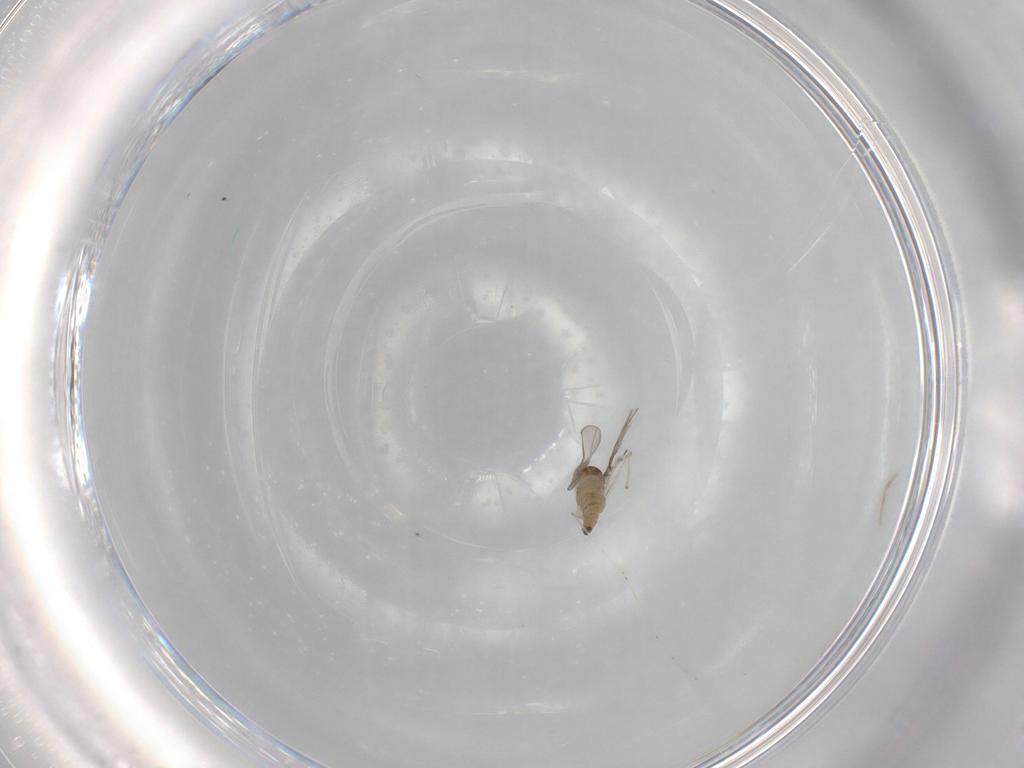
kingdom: Animalia
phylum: Arthropoda
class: Insecta
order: Diptera
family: Cecidomyiidae
